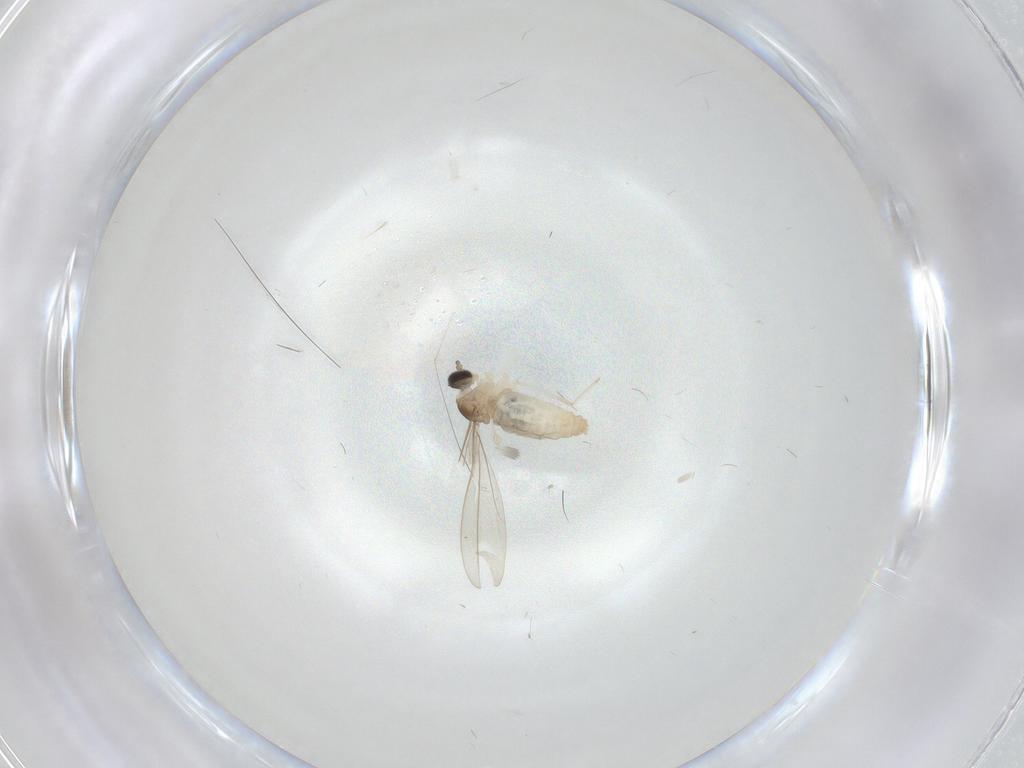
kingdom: Animalia
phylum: Arthropoda
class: Insecta
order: Diptera
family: Cecidomyiidae
